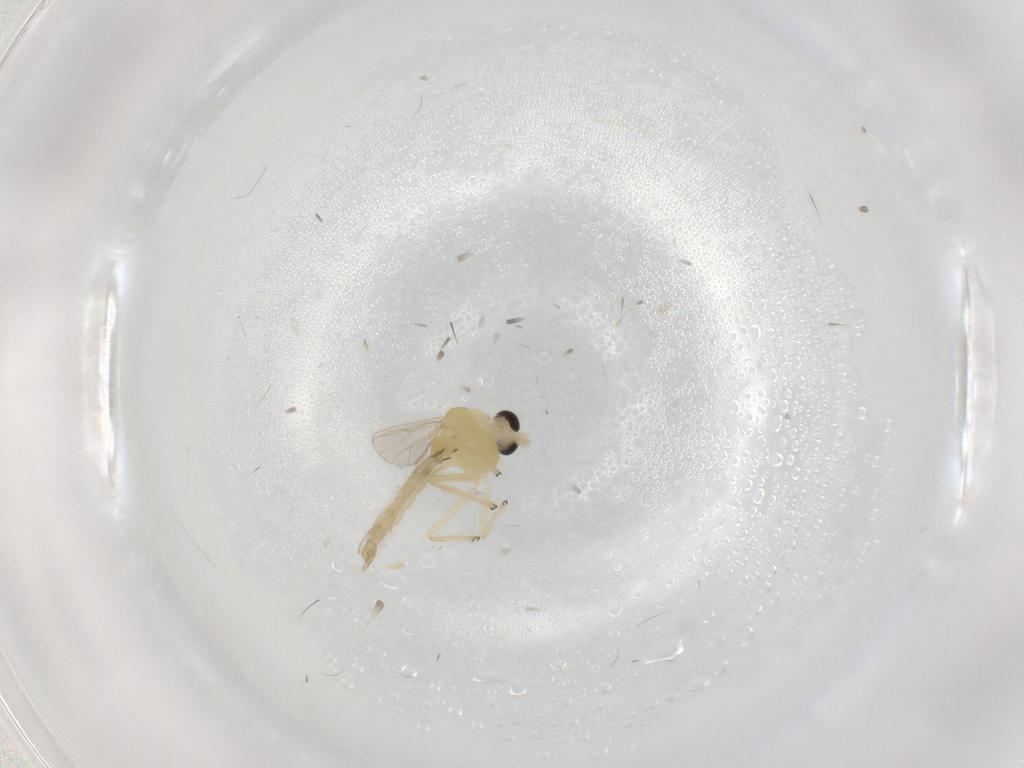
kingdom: Animalia
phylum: Arthropoda
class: Insecta
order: Diptera
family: Chironomidae
